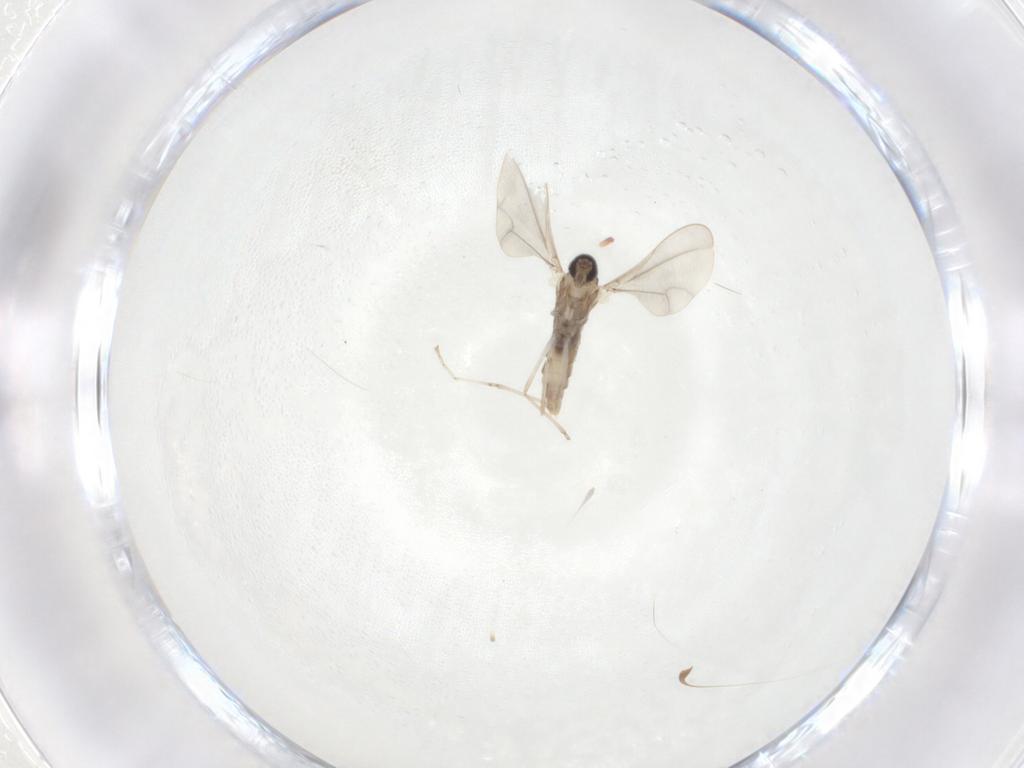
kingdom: Animalia
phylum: Arthropoda
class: Insecta
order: Diptera
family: Cecidomyiidae
